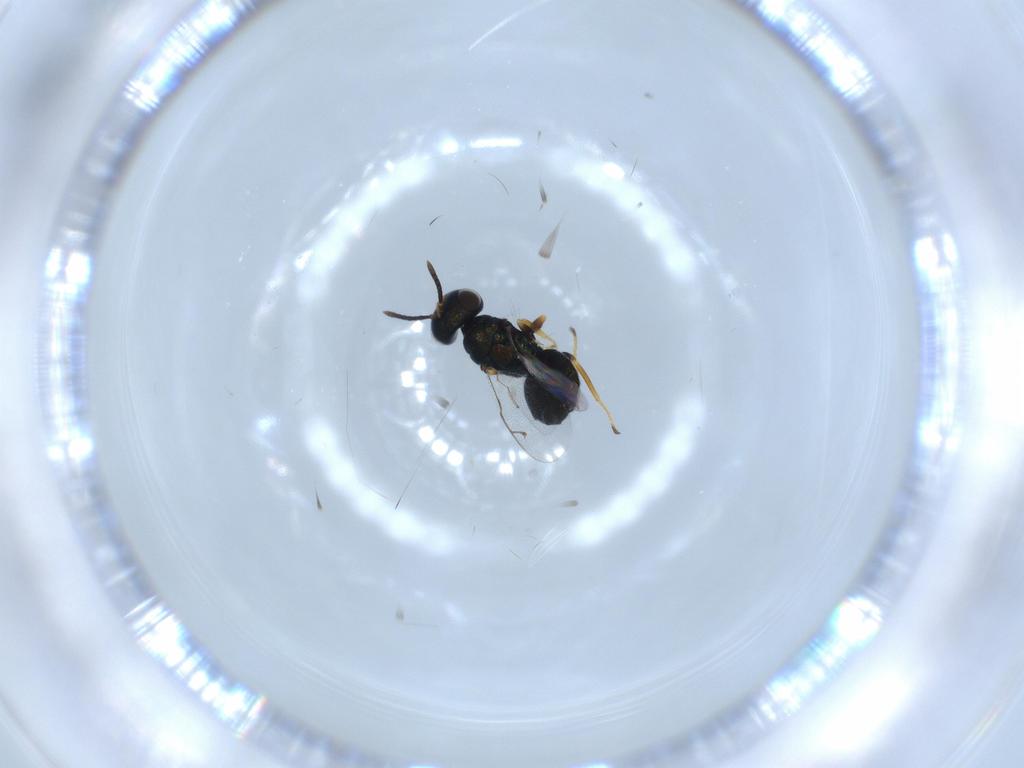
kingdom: Animalia
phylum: Arthropoda
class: Insecta
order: Hymenoptera
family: Pteromalidae
